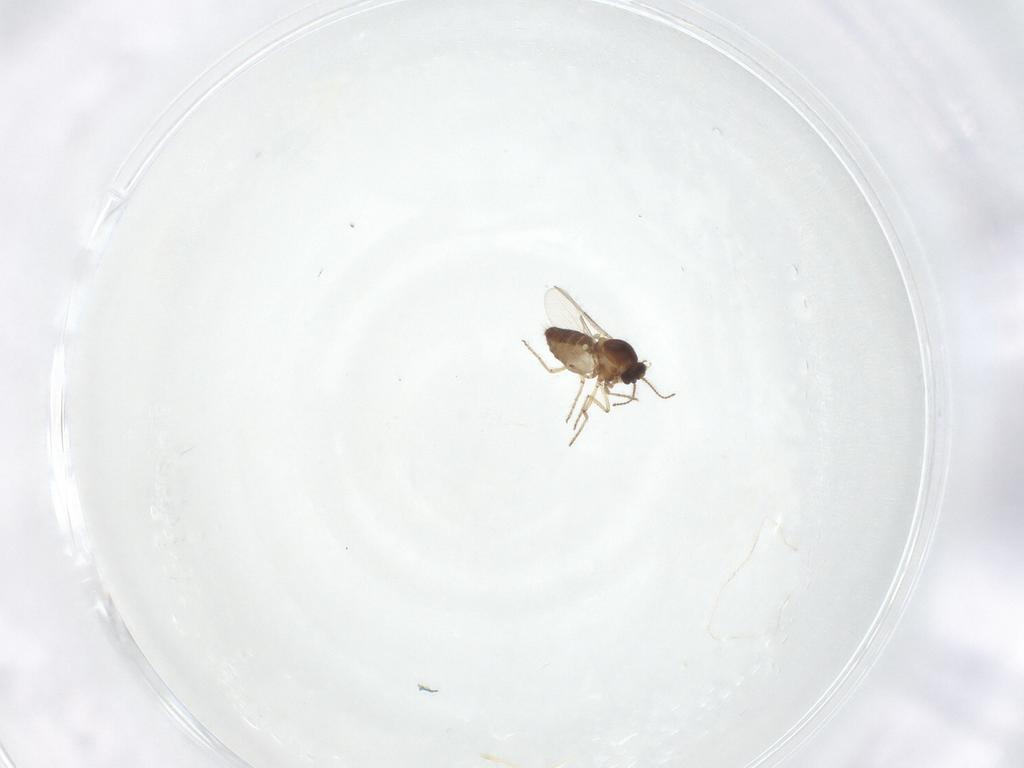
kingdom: Animalia
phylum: Arthropoda
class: Insecta
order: Diptera
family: Ceratopogonidae
